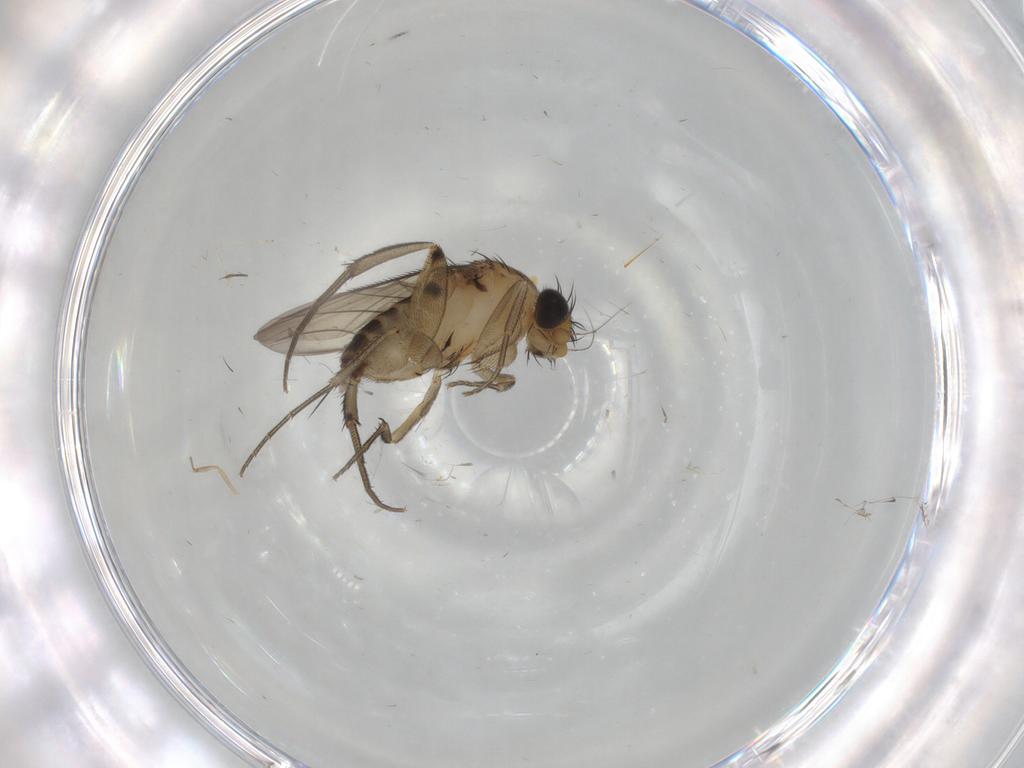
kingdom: Animalia
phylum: Arthropoda
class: Insecta
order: Diptera
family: Phoridae
